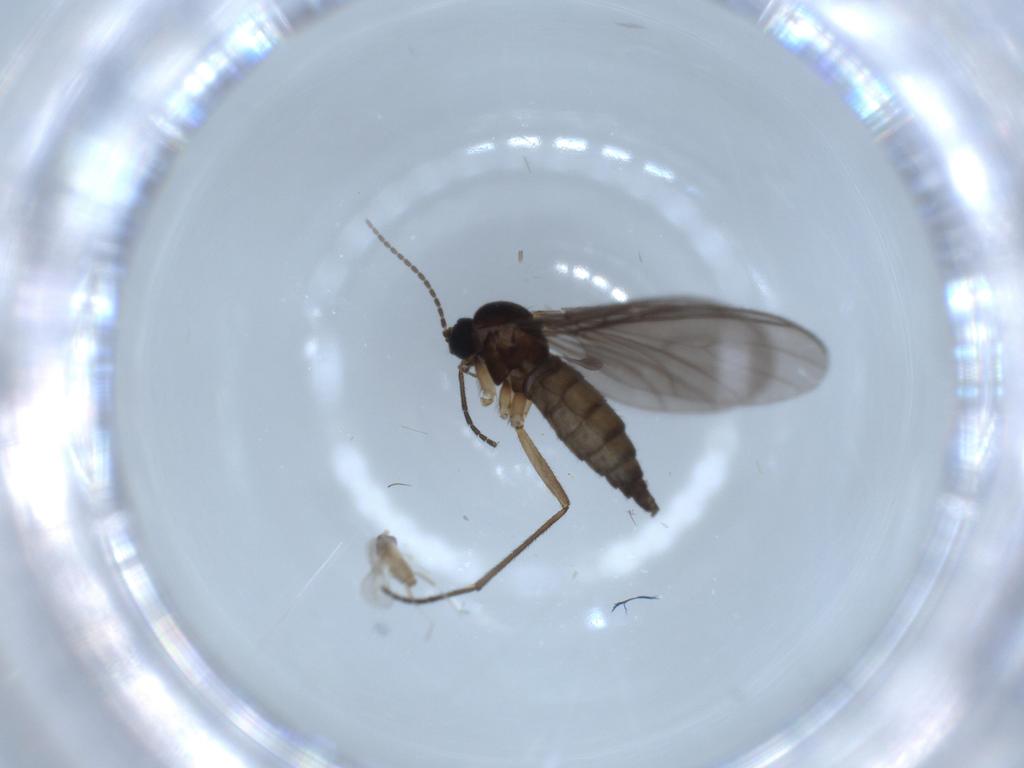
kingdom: Animalia
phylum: Arthropoda
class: Insecta
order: Diptera
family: Cecidomyiidae
